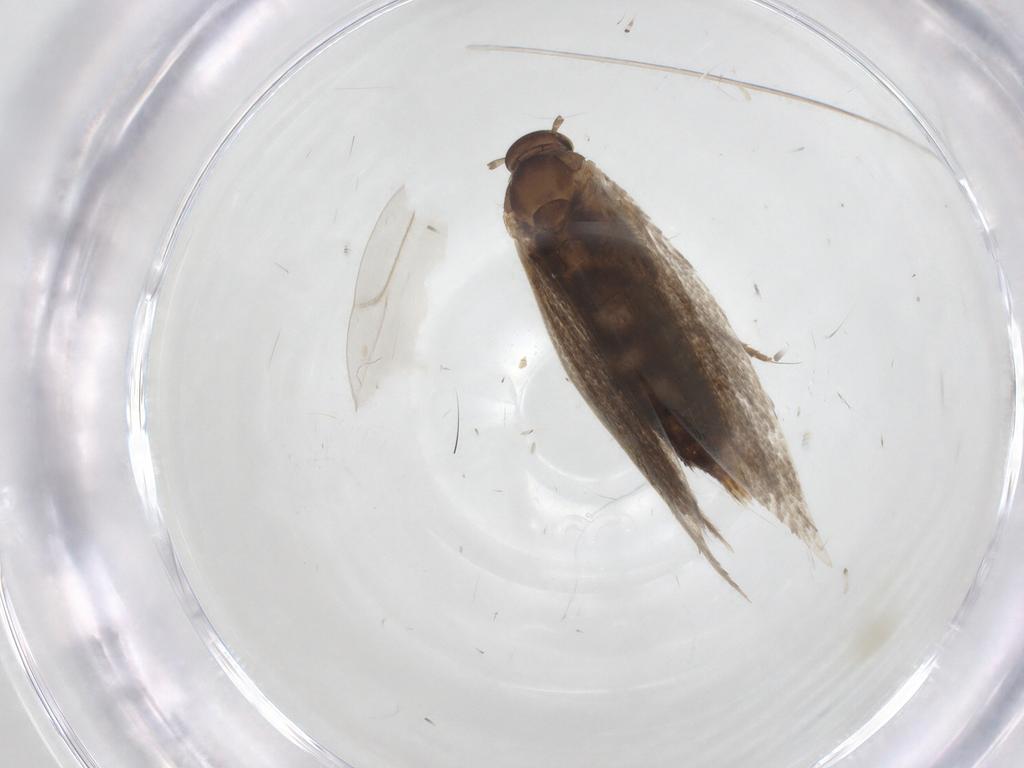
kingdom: Animalia
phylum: Arthropoda
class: Insecta
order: Lepidoptera
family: Elachistidae
